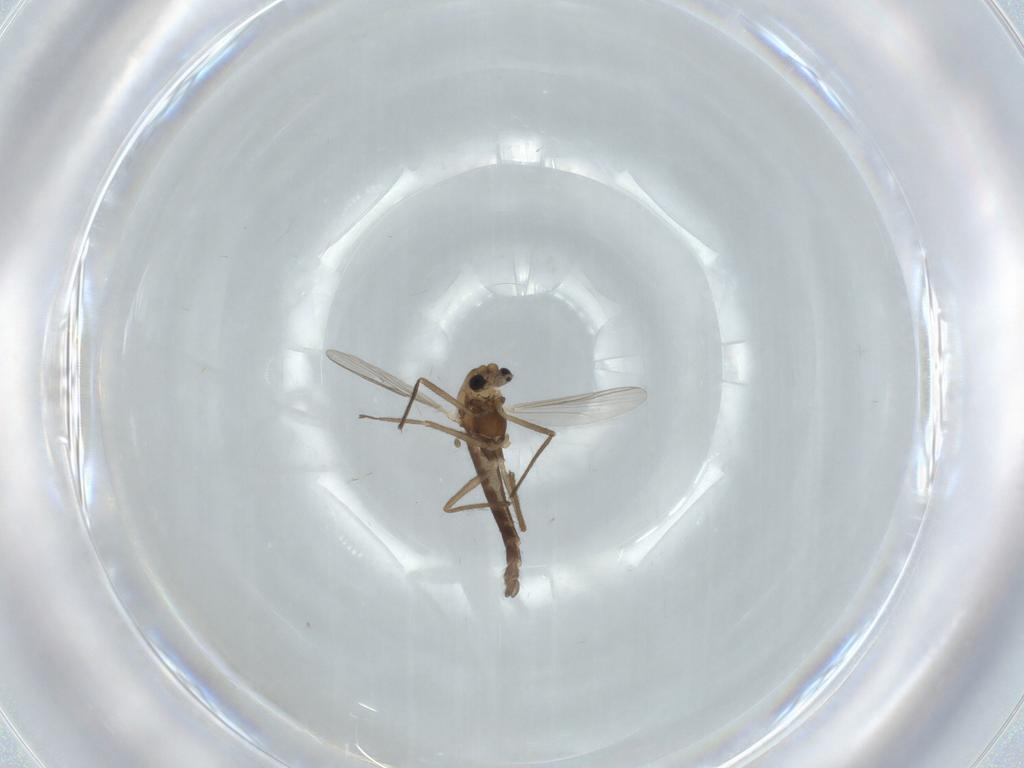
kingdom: Animalia
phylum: Arthropoda
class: Insecta
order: Diptera
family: Chironomidae
